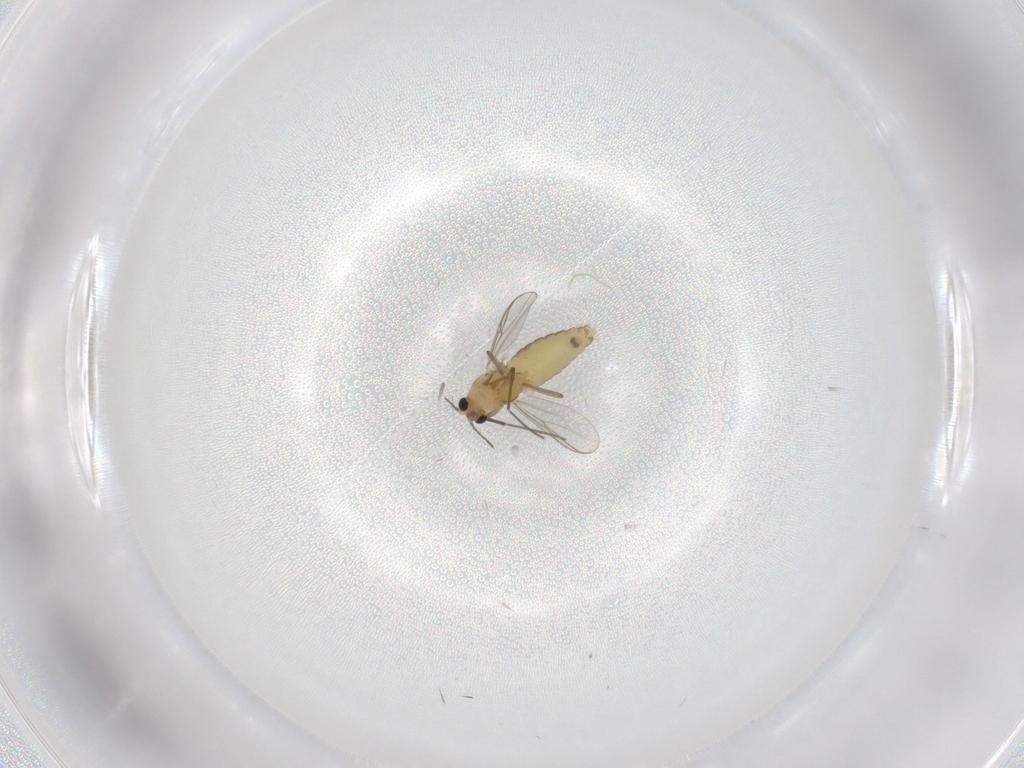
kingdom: Animalia
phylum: Arthropoda
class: Insecta
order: Diptera
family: Chironomidae
